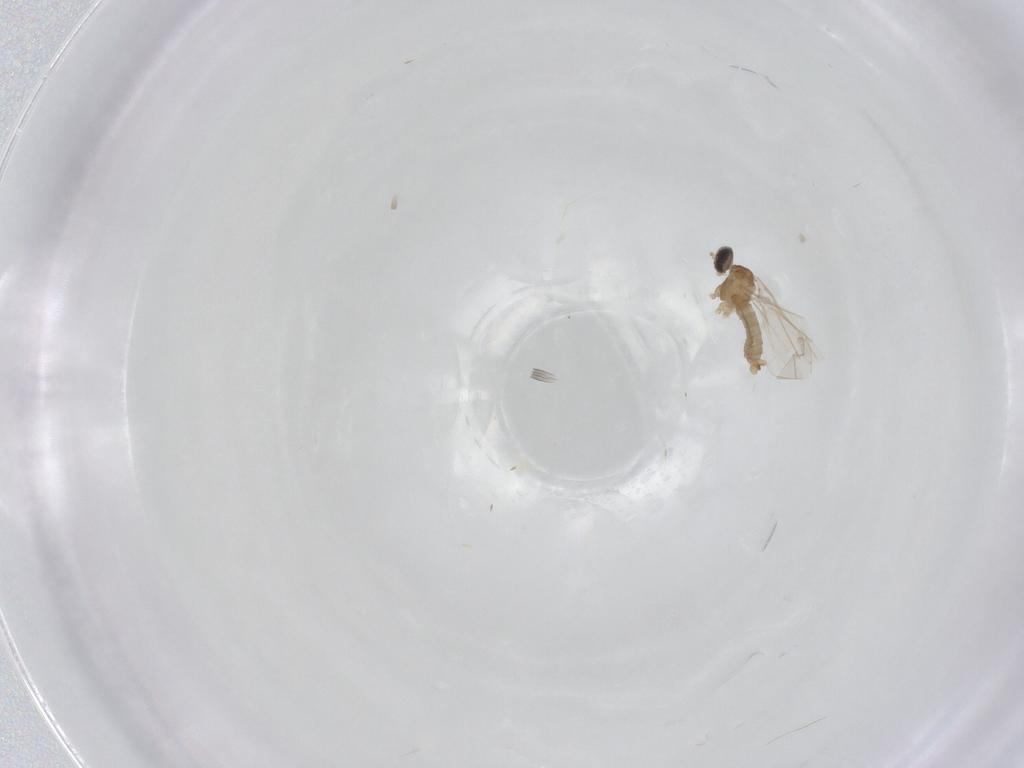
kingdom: Animalia
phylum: Arthropoda
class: Insecta
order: Diptera
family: Cecidomyiidae
